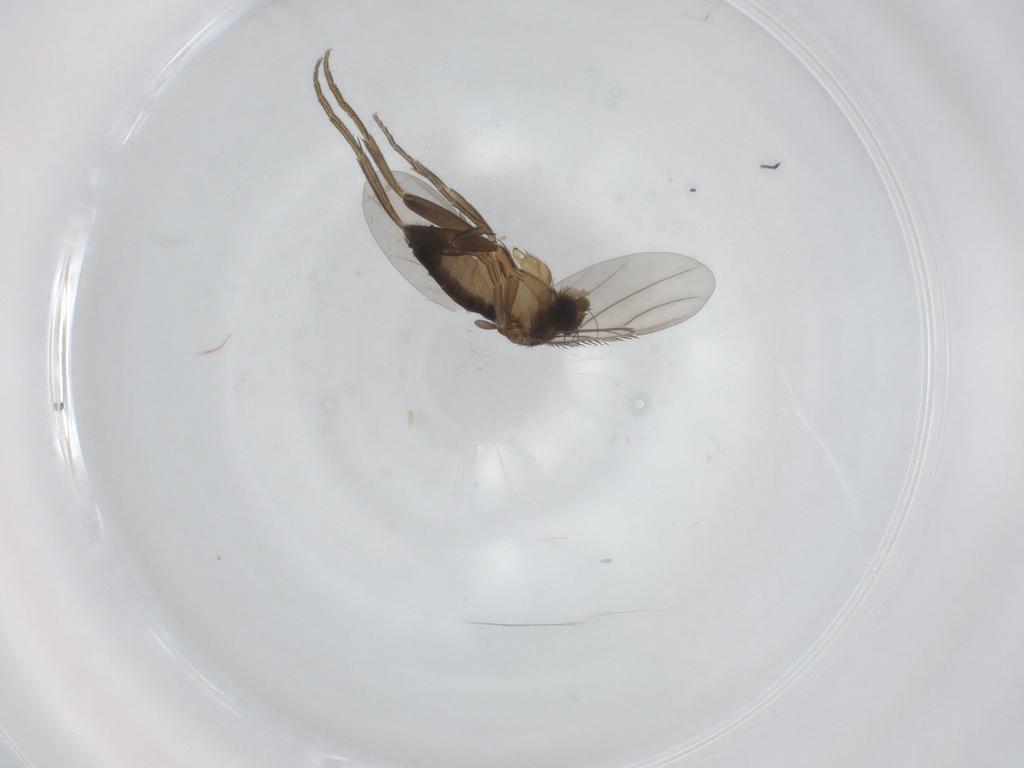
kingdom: Animalia
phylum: Arthropoda
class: Insecta
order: Diptera
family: Phoridae
